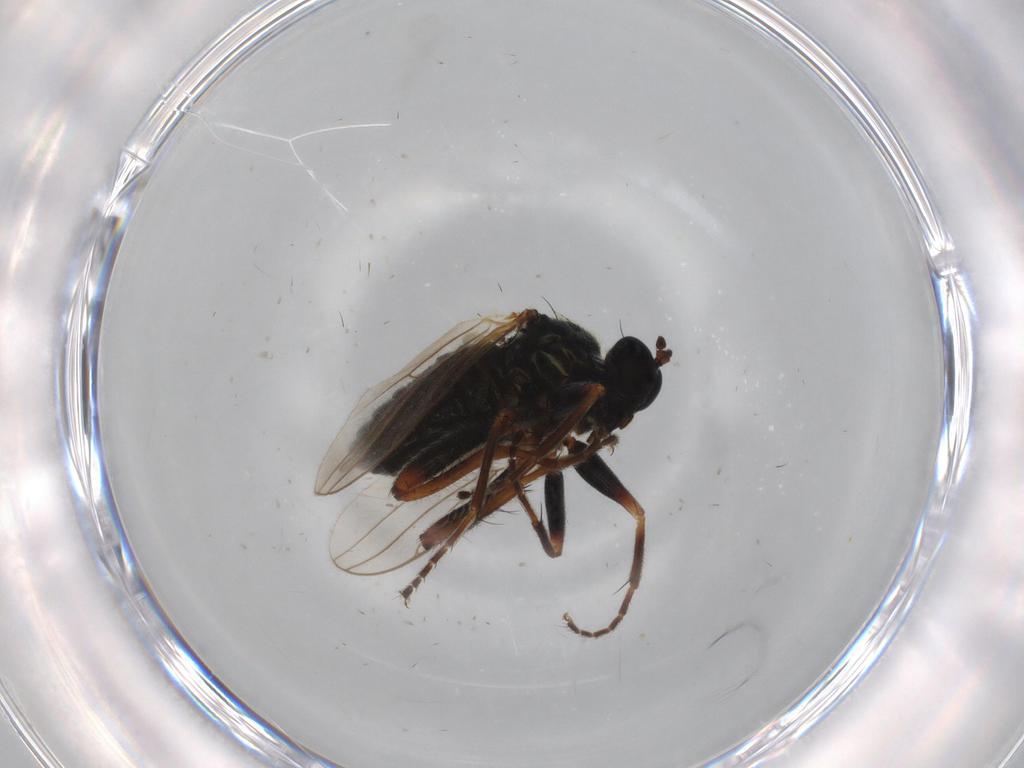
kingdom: Animalia
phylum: Arthropoda
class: Insecta
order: Diptera
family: Hybotidae
